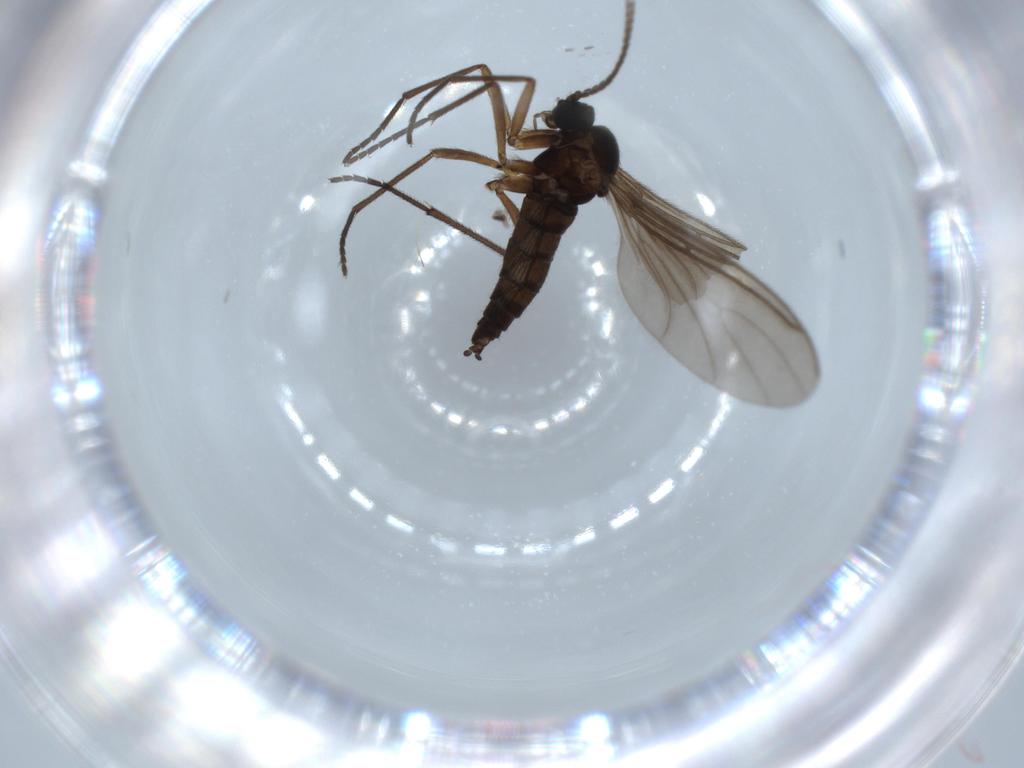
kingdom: Animalia
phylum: Arthropoda
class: Insecta
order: Diptera
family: Sciaridae
